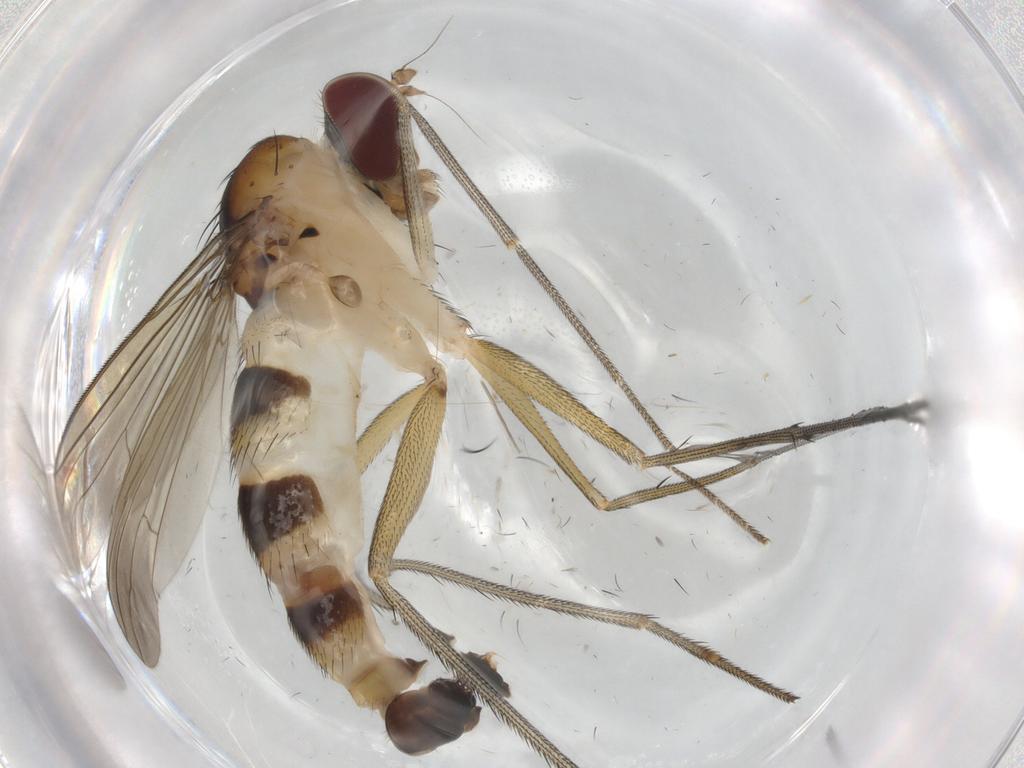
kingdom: Animalia
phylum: Arthropoda
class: Insecta
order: Diptera
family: Dolichopodidae
